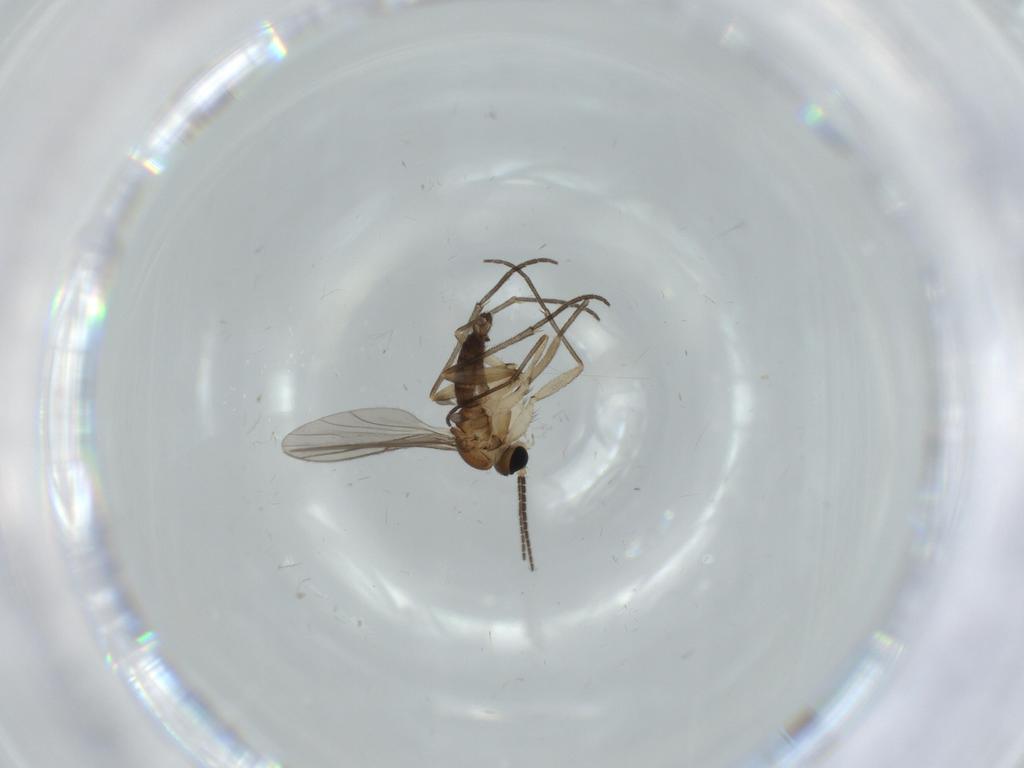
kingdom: Animalia
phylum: Arthropoda
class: Insecta
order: Diptera
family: Sciaridae
